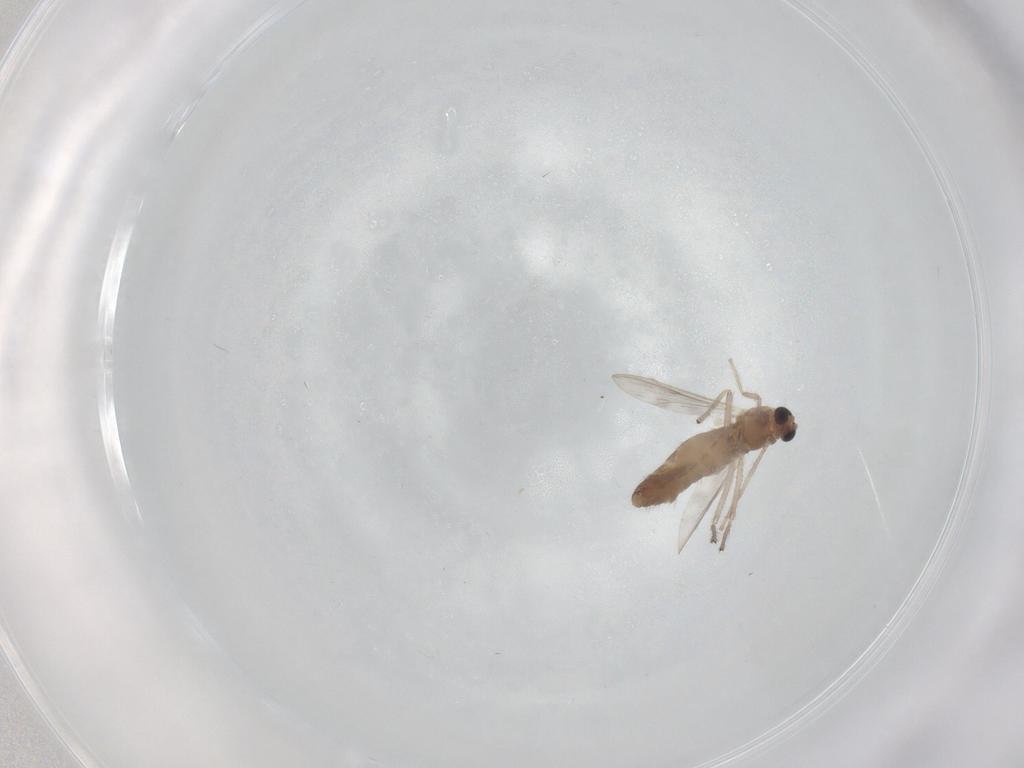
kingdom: Animalia
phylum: Arthropoda
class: Insecta
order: Diptera
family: Chironomidae
